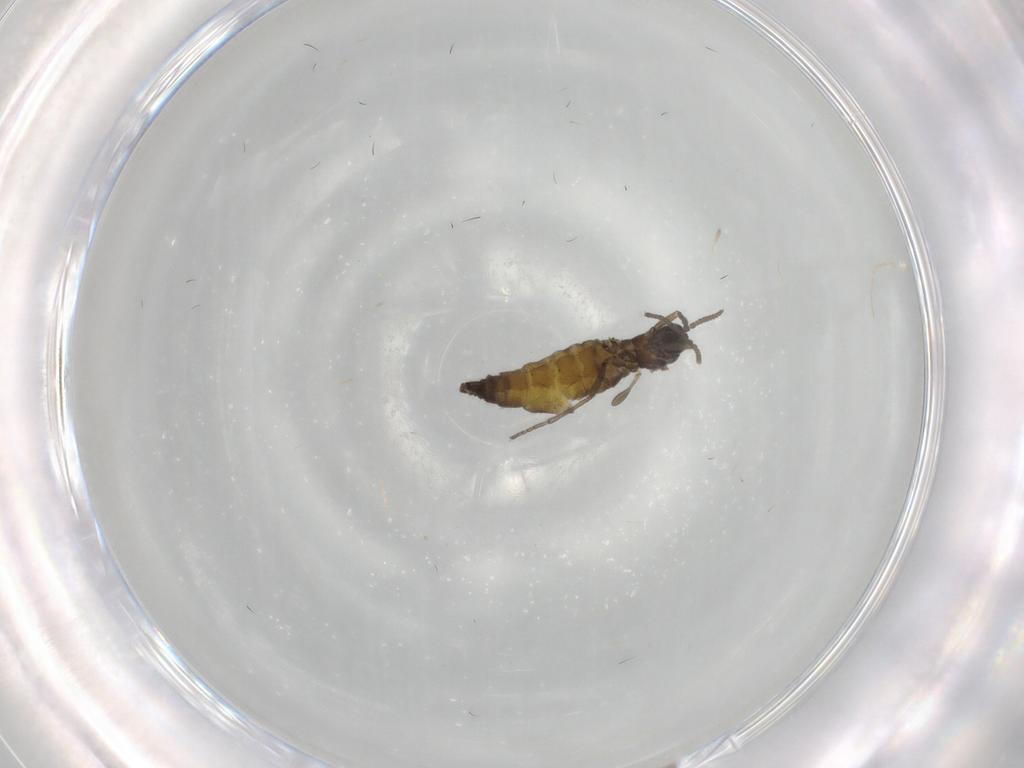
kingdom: Animalia
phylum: Arthropoda
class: Insecta
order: Diptera
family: Sciaridae
